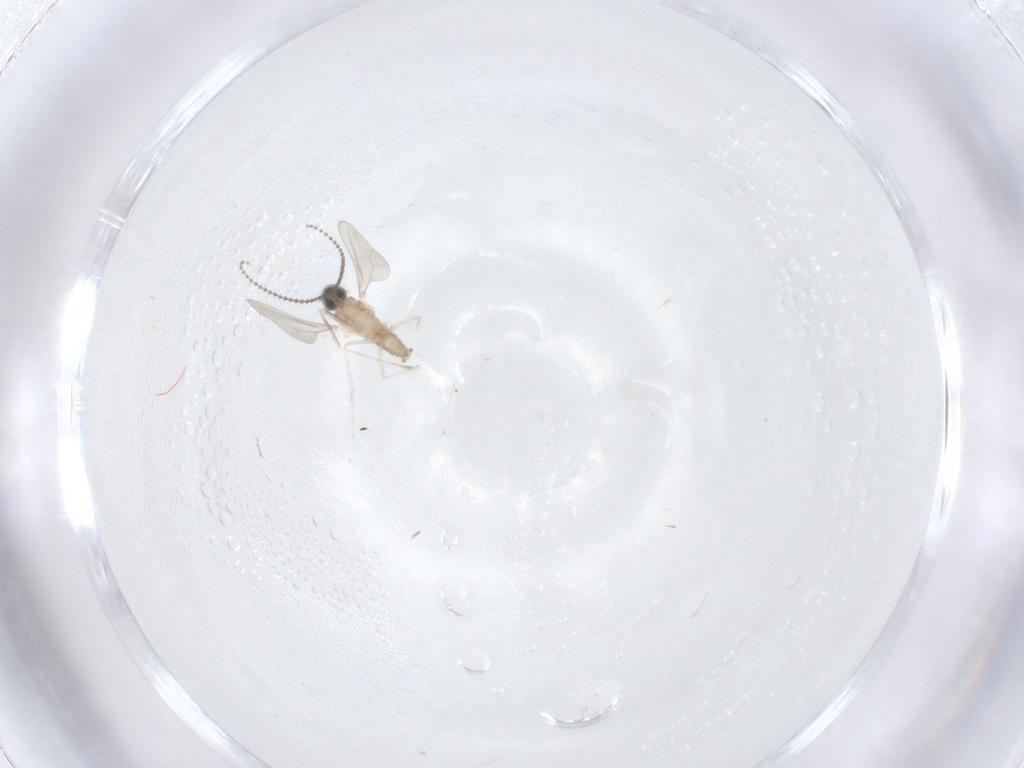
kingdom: Animalia
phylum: Arthropoda
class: Insecta
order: Diptera
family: Cecidomyiidae
